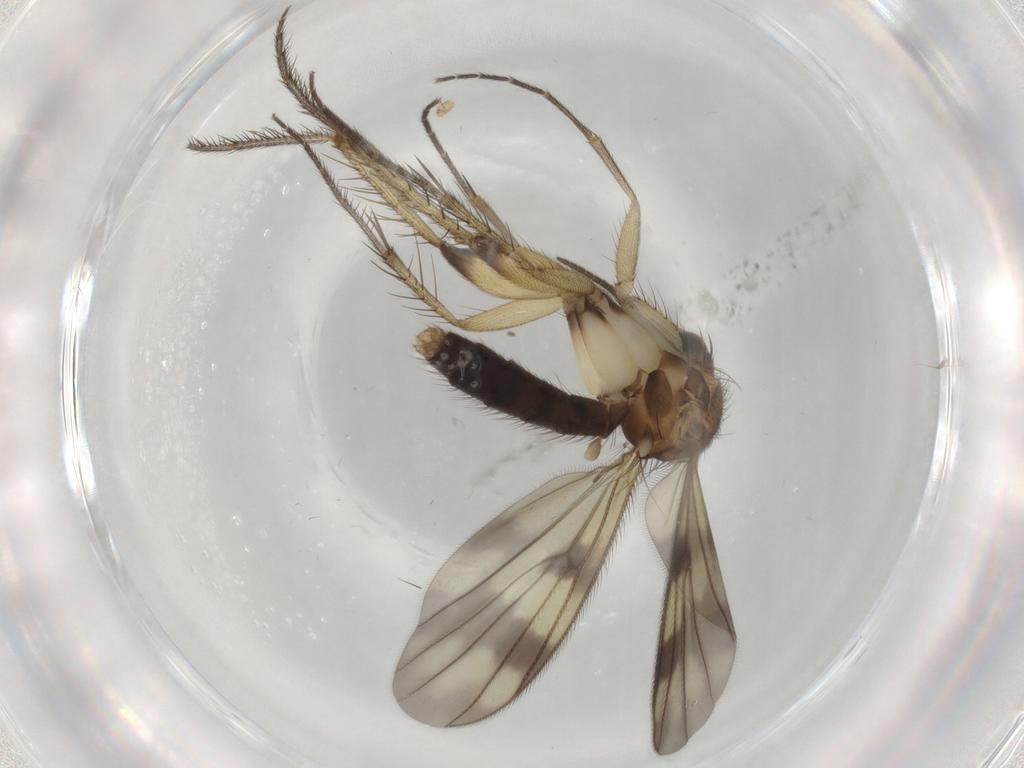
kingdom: Animalia
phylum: Arthropoda
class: Insecta
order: Diptera
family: Mycetophilidae
